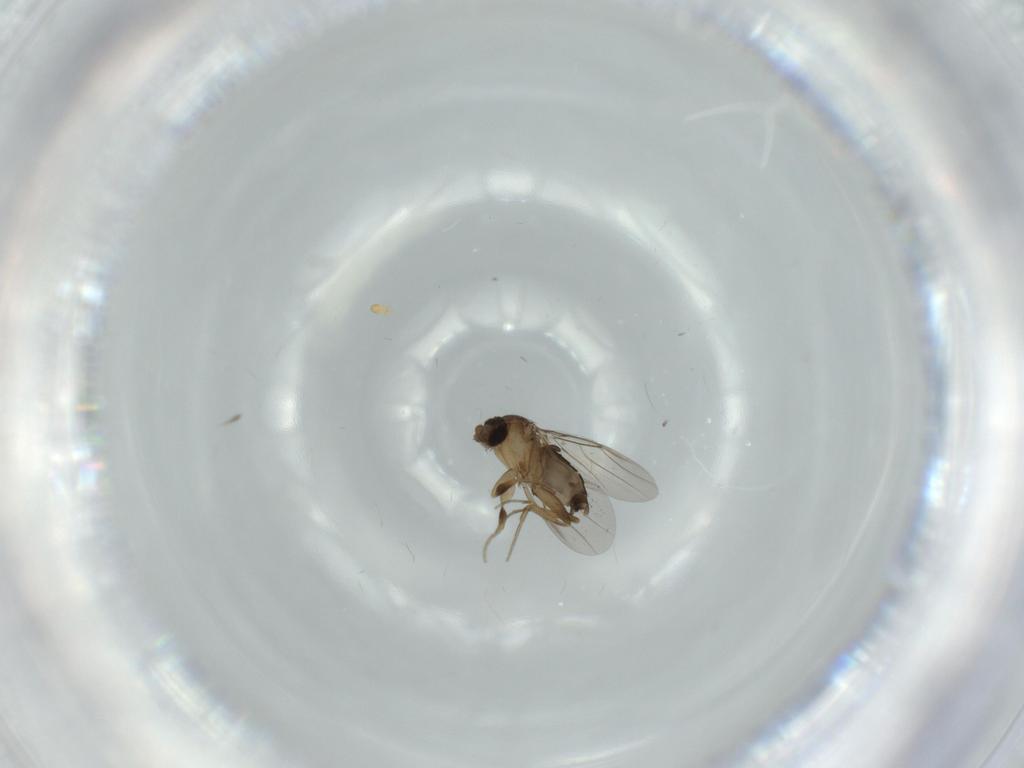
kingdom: Animalia
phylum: Arthropoda
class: Insecta
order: Diptera
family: Phoridae
